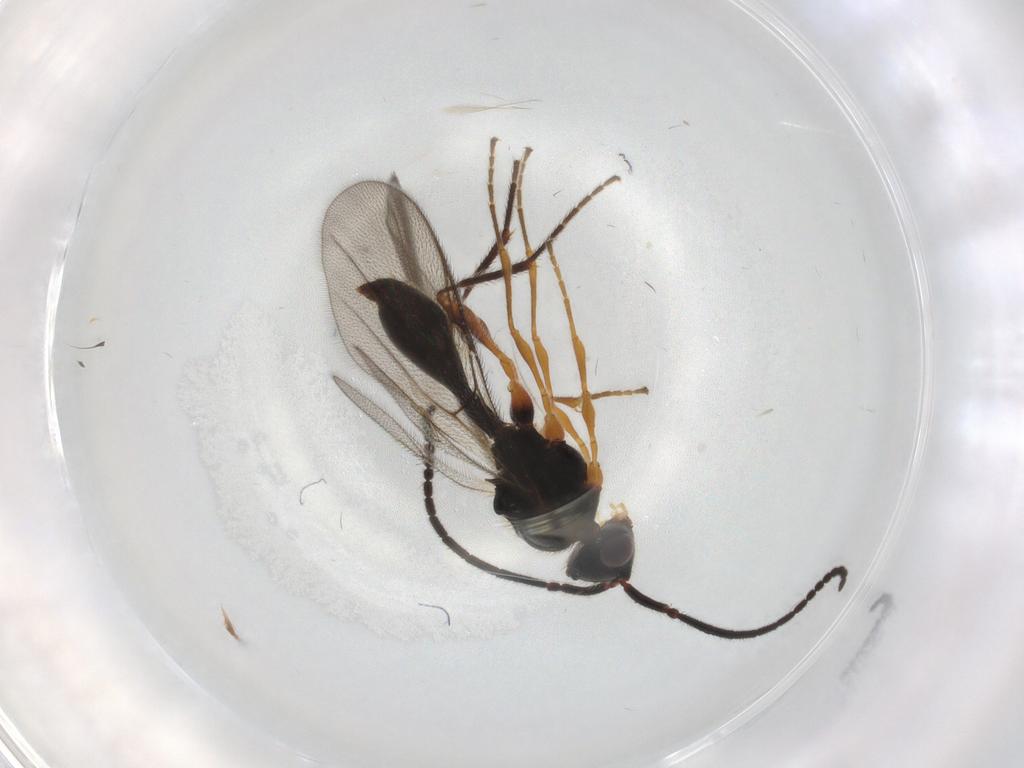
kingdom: Animalia
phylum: Arthropoda
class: Insecta
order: Hymenoptera
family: Diapriidae
